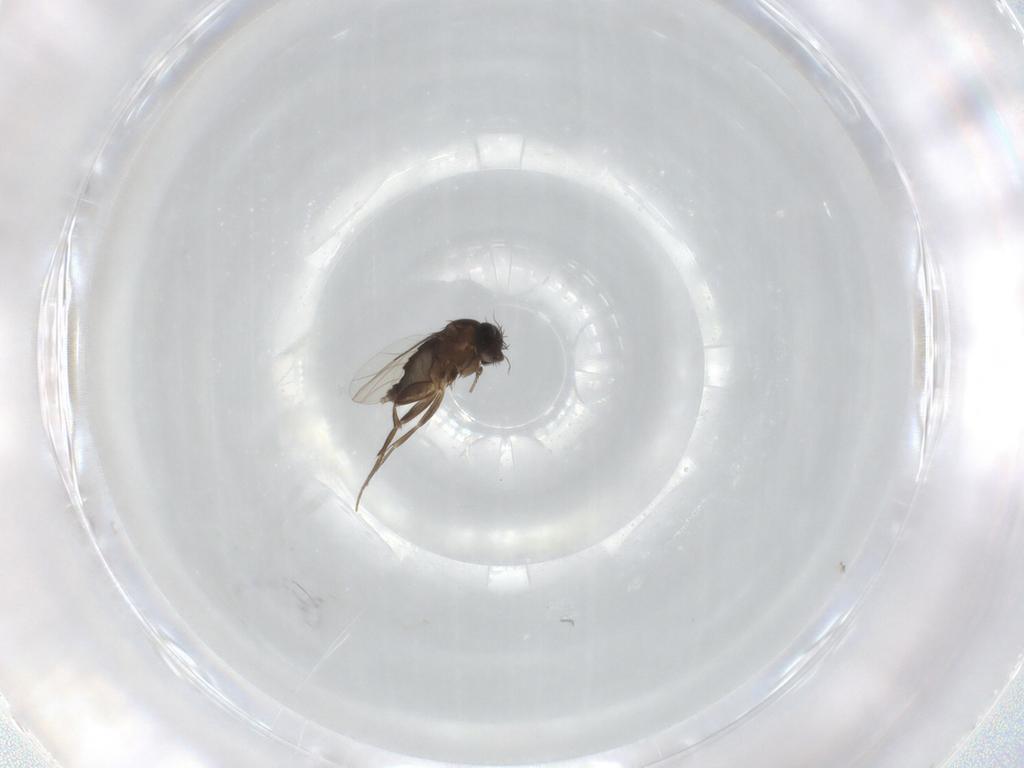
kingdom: Animalia
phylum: Arthropoda
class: Insecta
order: Diptera
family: Phoridae
